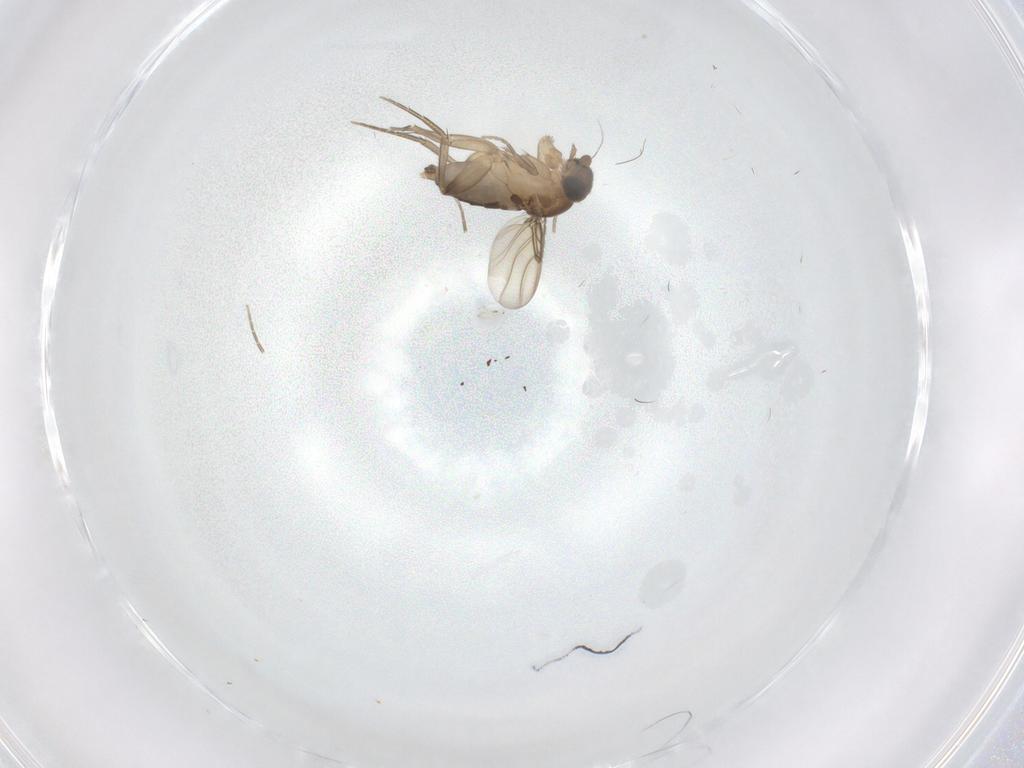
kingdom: Animalia
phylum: Arthropoda
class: Insecta
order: Diptera
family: Phoridae
